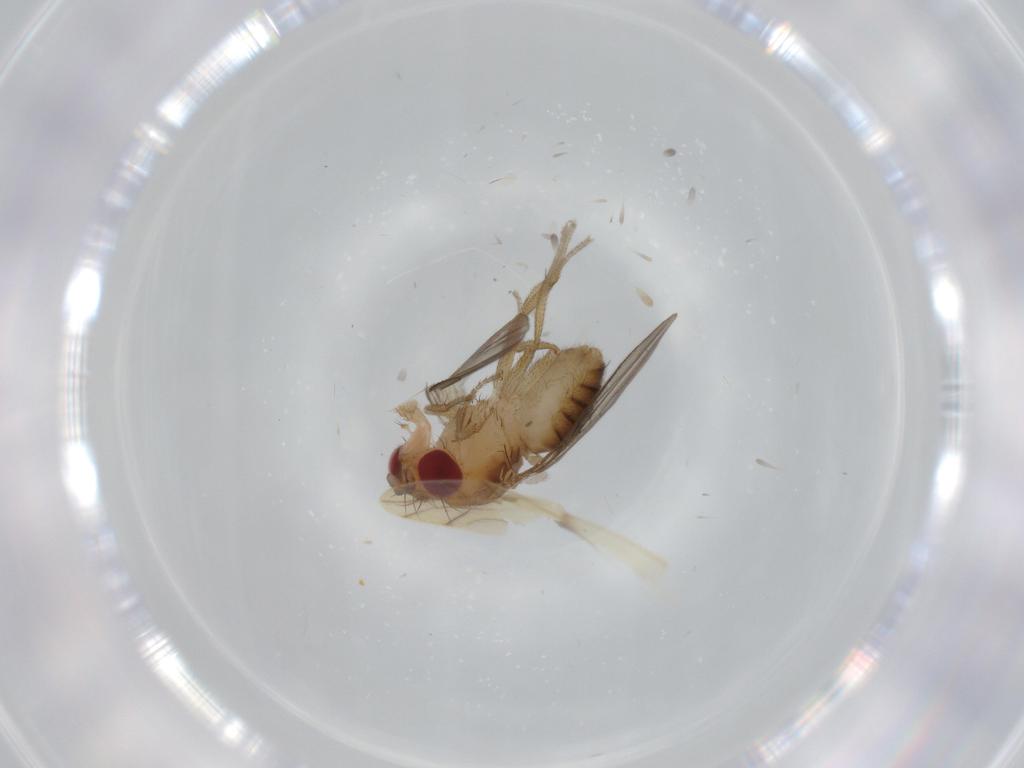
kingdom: Animalia
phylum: Arthropoda
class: Insecta
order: Diptera
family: Drosophilidae
